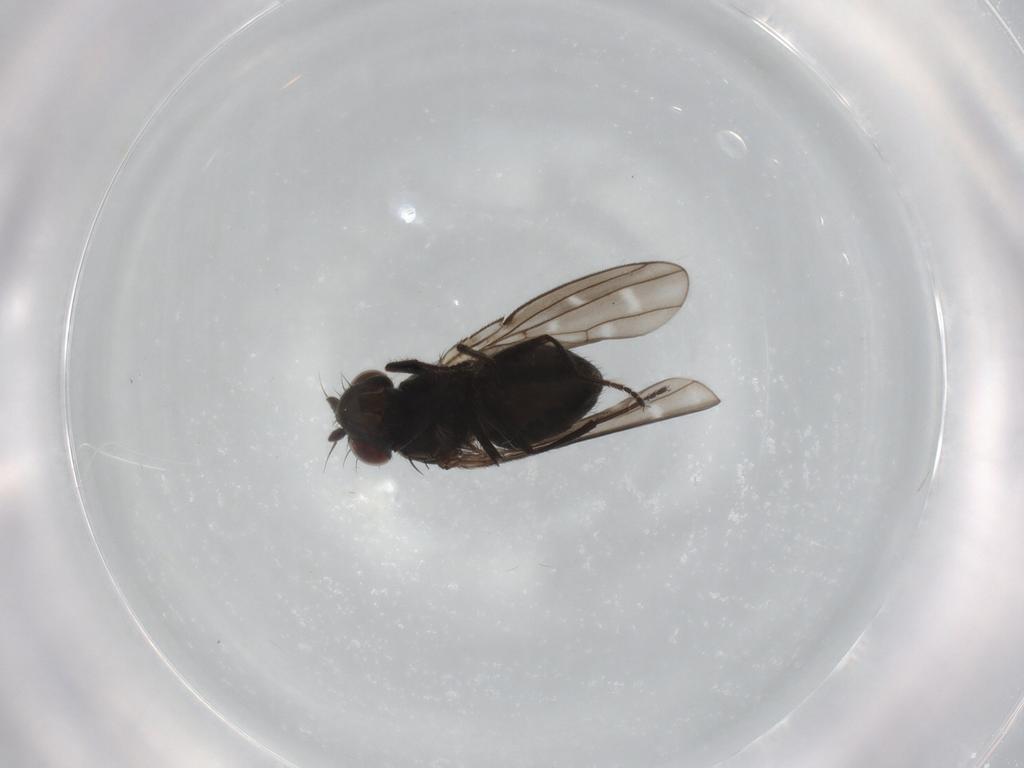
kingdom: Animalia
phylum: Arthropoda
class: Insecta
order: Diptera
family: Ephydridae
